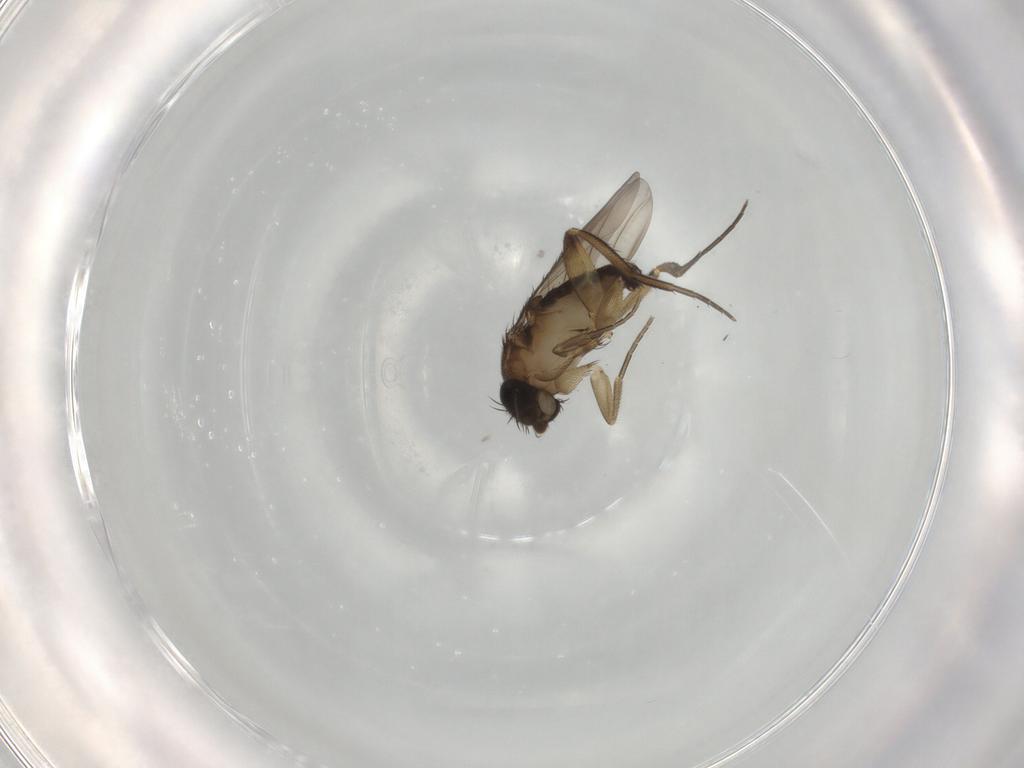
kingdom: Animalia
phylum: Arthropoda
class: Insecta
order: Diptera
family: Phoridae
